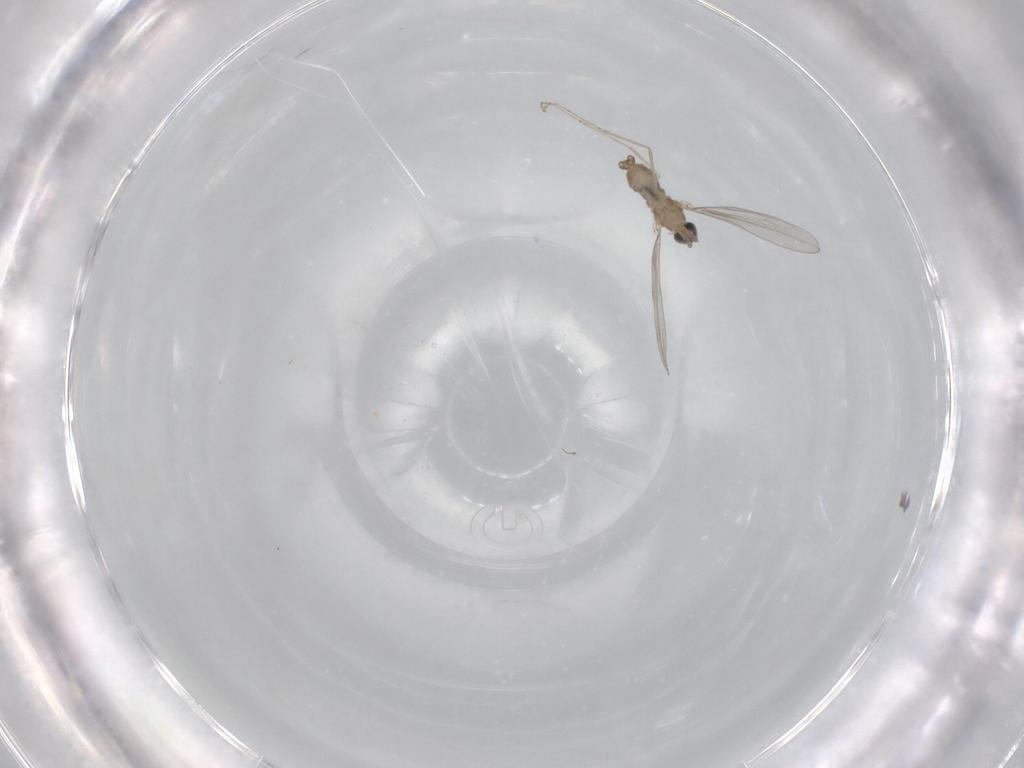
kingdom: Animalia
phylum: Arthropoda
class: Insecta
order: Diptera
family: Cecidomyiidae
